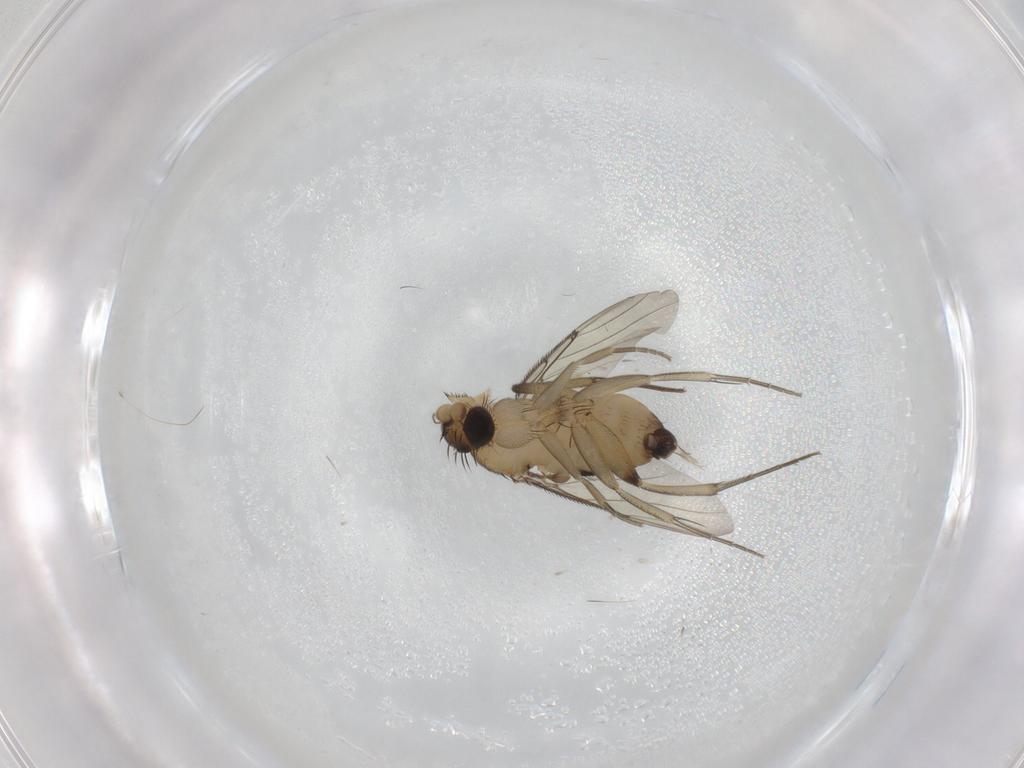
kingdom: Animalia
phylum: Arthropoda
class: Insecta
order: Diptera
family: Phoridae
